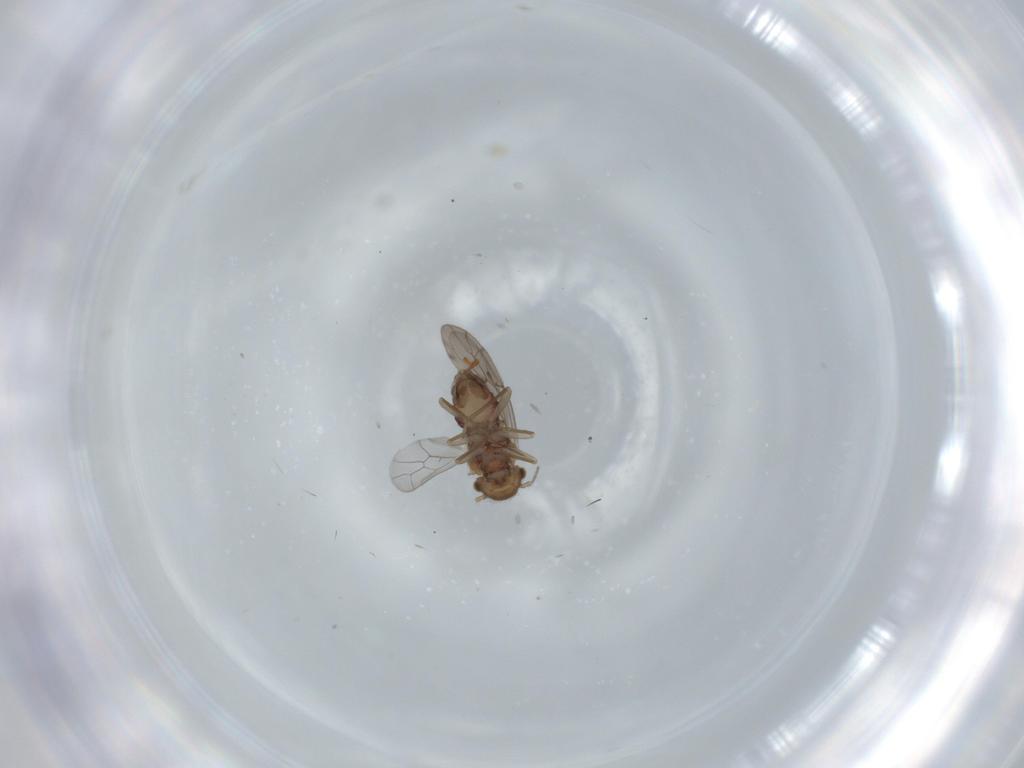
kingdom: Animalia
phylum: Arthropoda
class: Insecta
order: Psocodea
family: Ectopsocidae
